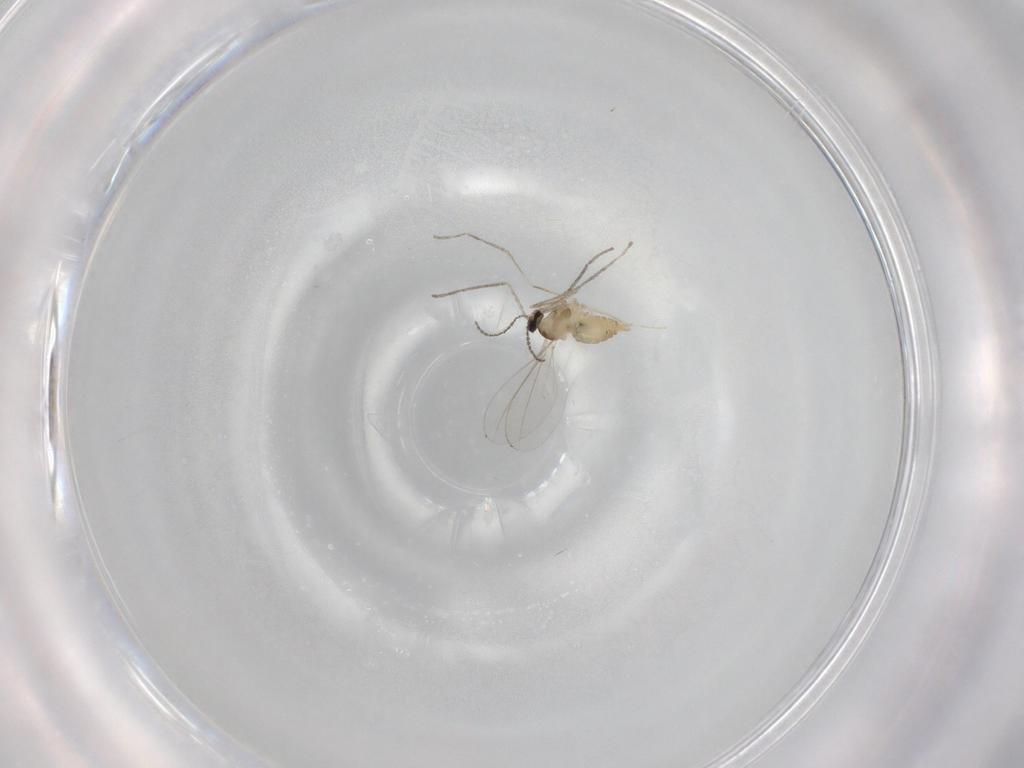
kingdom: Animalia
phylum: Arthropoda
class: Insecta
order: Diptera
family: Cecidomyiidae
